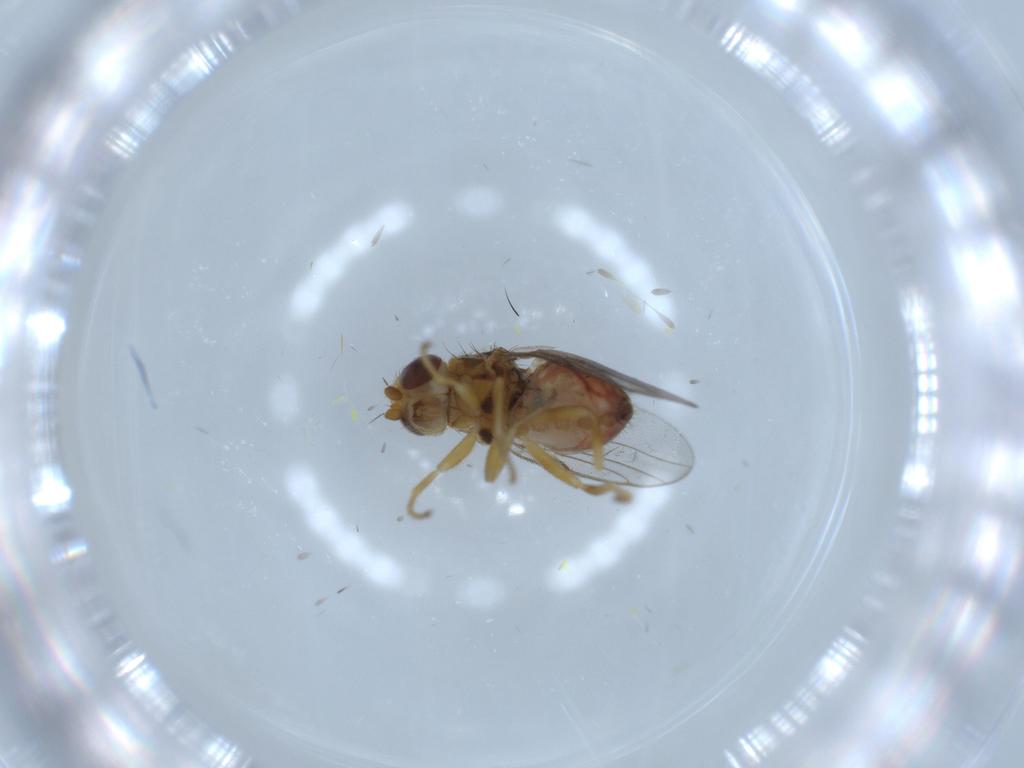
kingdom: Animalia
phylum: Arthropoda
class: Insecta
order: Diptera
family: Chloropidae
